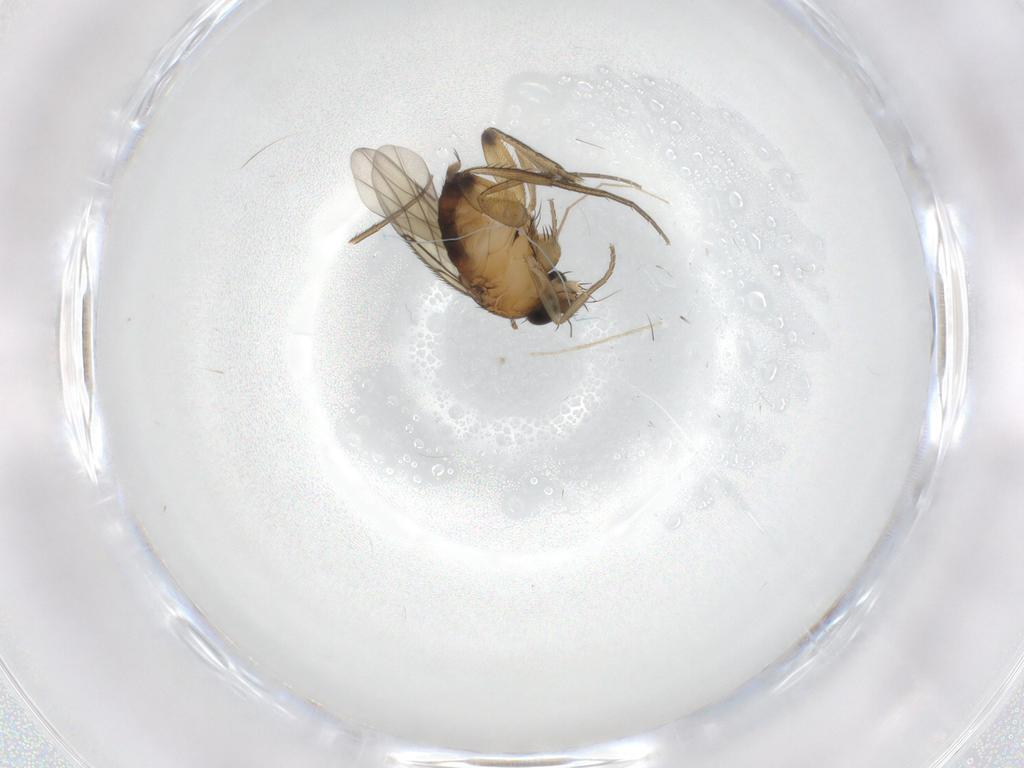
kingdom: Animalia
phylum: Arthropoda
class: Insecta
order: Diptera
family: Phoridae
